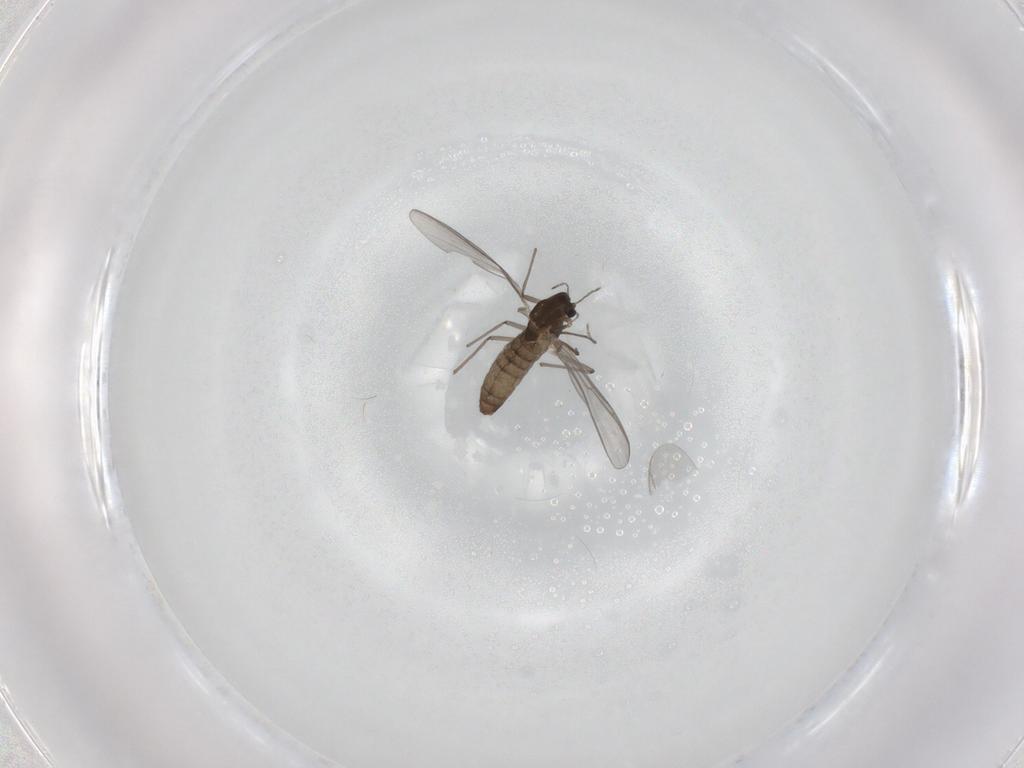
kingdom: Animalia
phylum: Arthropoda
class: Insecta
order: Diptera
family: Chironomidae
